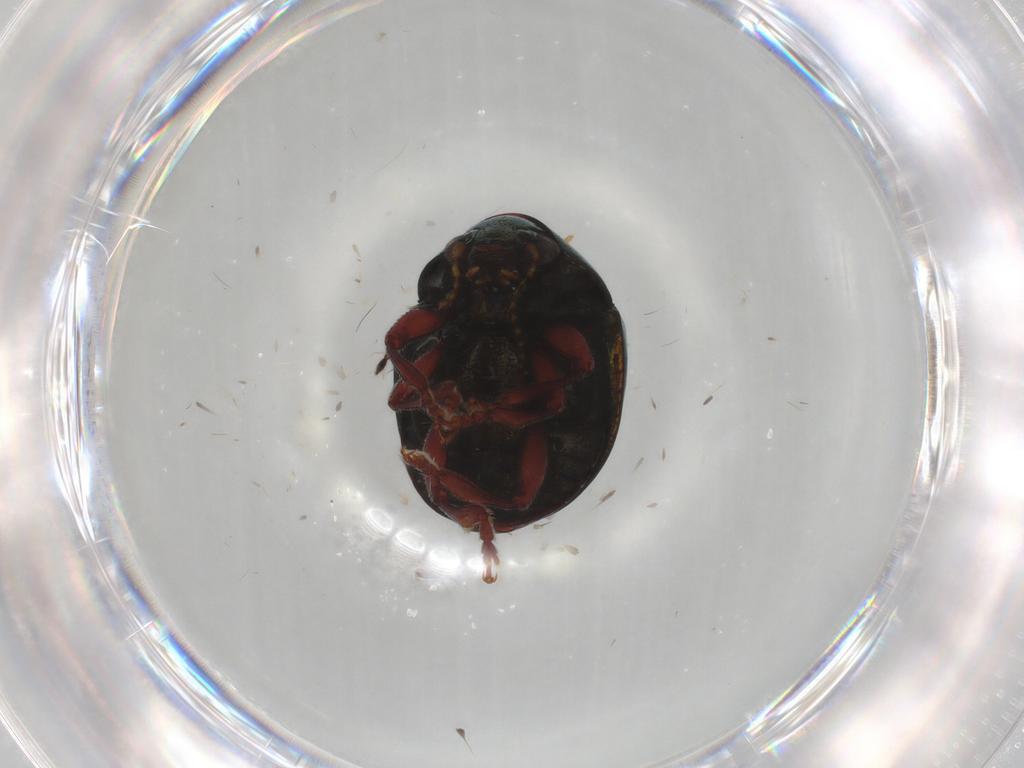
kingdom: Animalia
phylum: Arthropoda
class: Insecta
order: Coleoptera
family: Chrysomelidae
